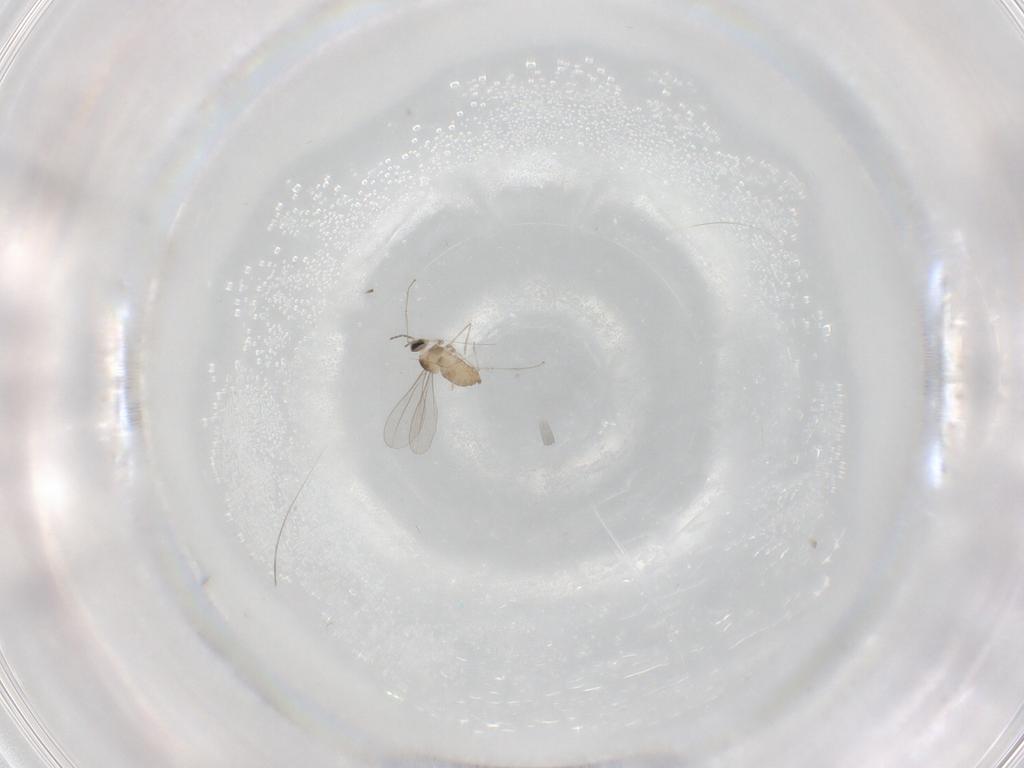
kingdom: Animalia
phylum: Arthropoda
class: Insecta
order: Diptera
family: Cecidomyiidae
